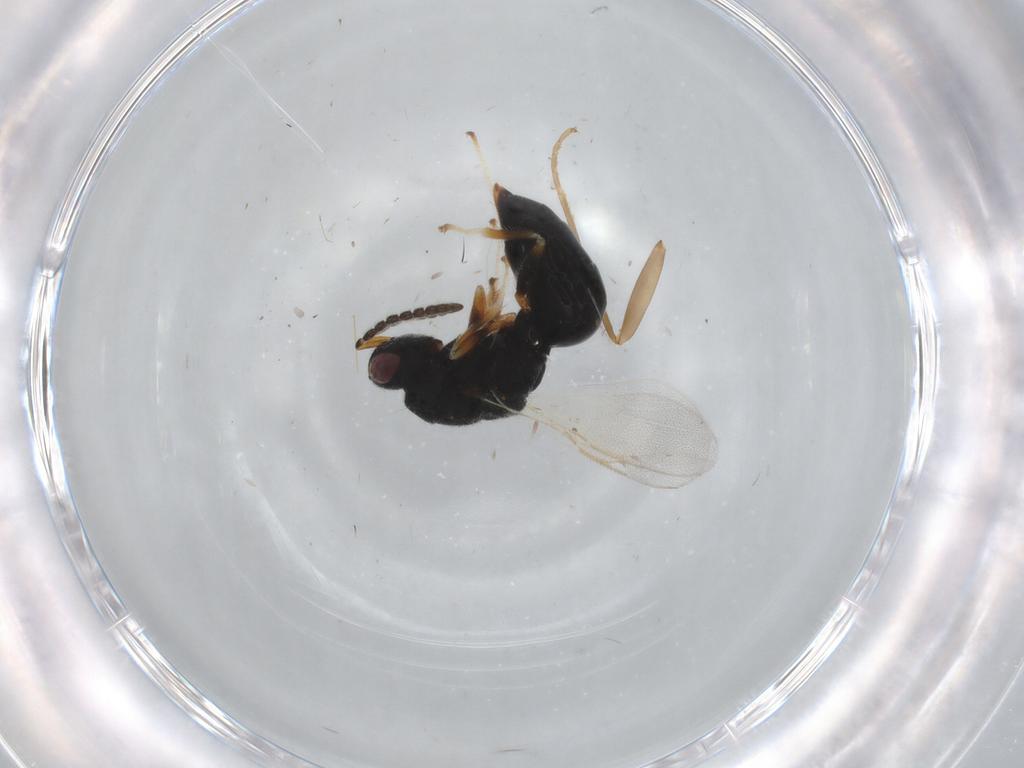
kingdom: Animalia
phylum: Arthropoda
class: Insecta
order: Hymenoptera
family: Eurytomidae
